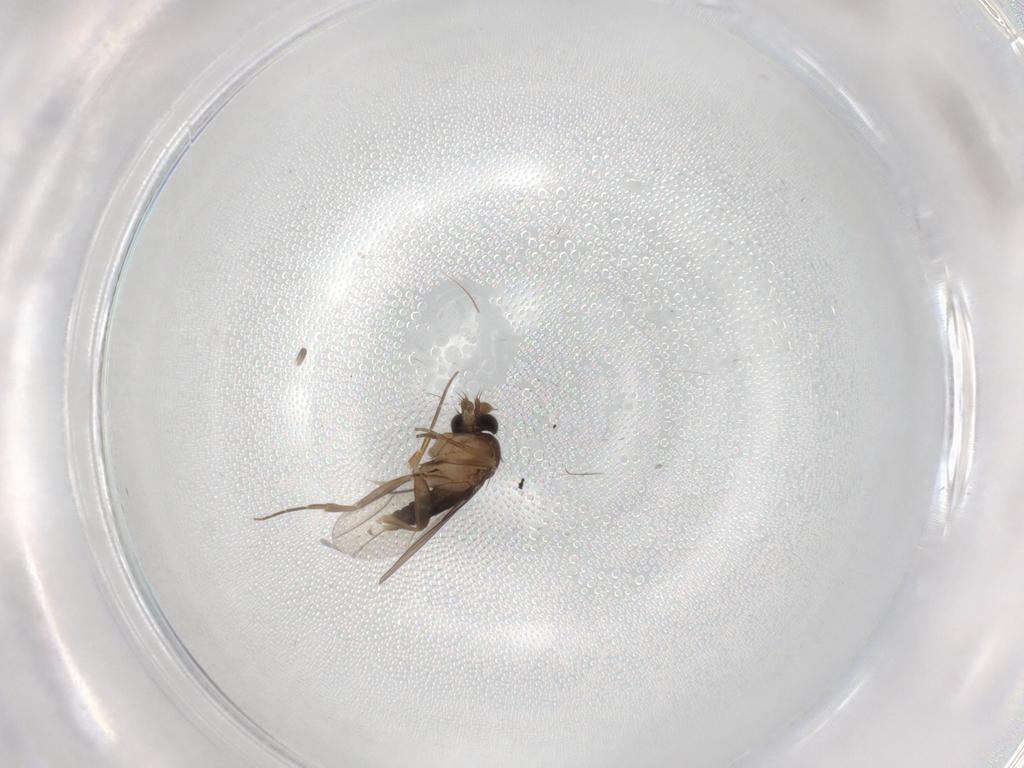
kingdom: Animalia
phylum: Arthropoda
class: Insecta
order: Diptera
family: Phoridae
